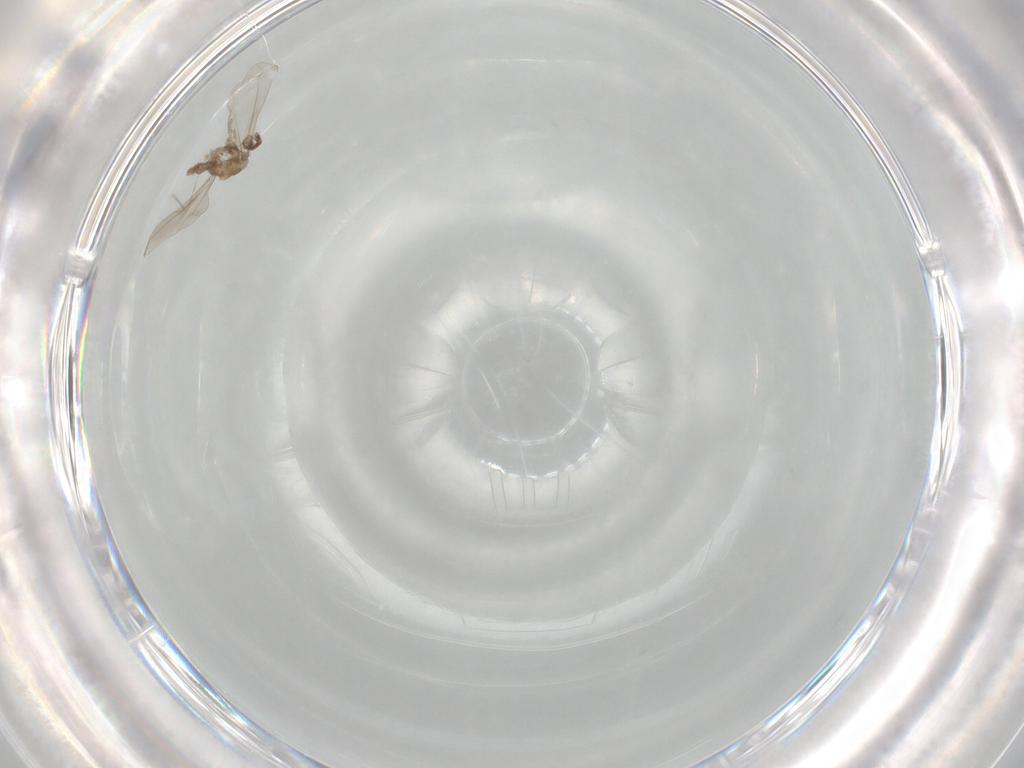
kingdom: Animalia
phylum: Arthropoda
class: Insecta
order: Diptera
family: Cecidomyiidae
